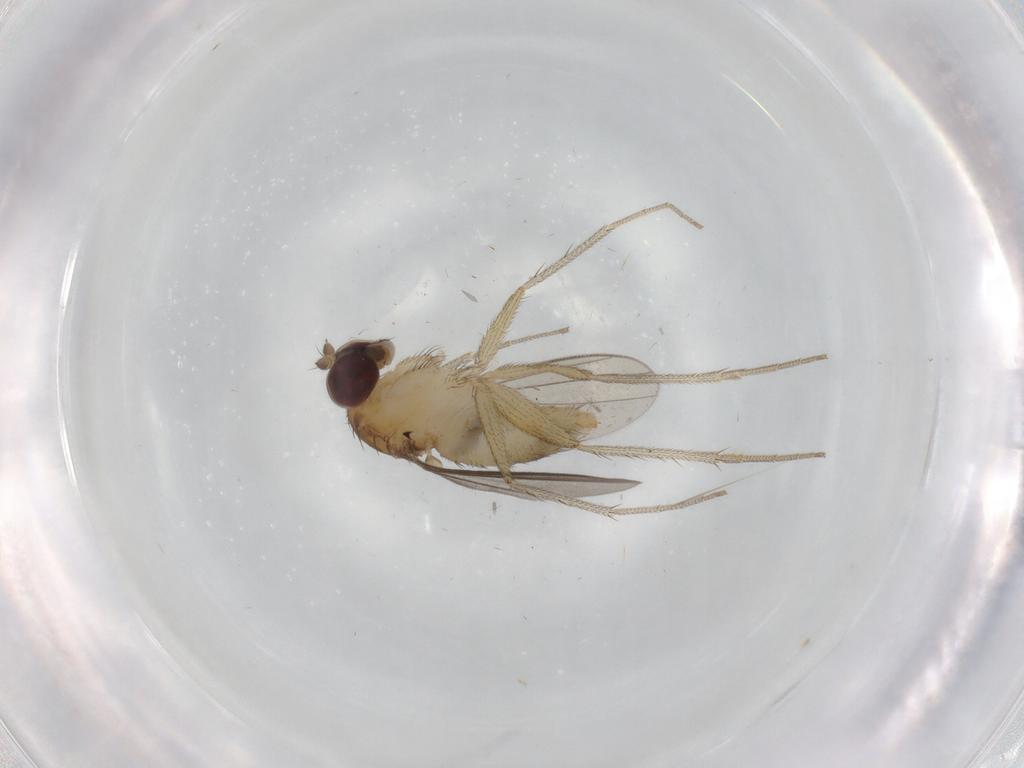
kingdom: Animalia
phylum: Arthropoda
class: Insecta
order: Diptera
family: Dolichopodidae
